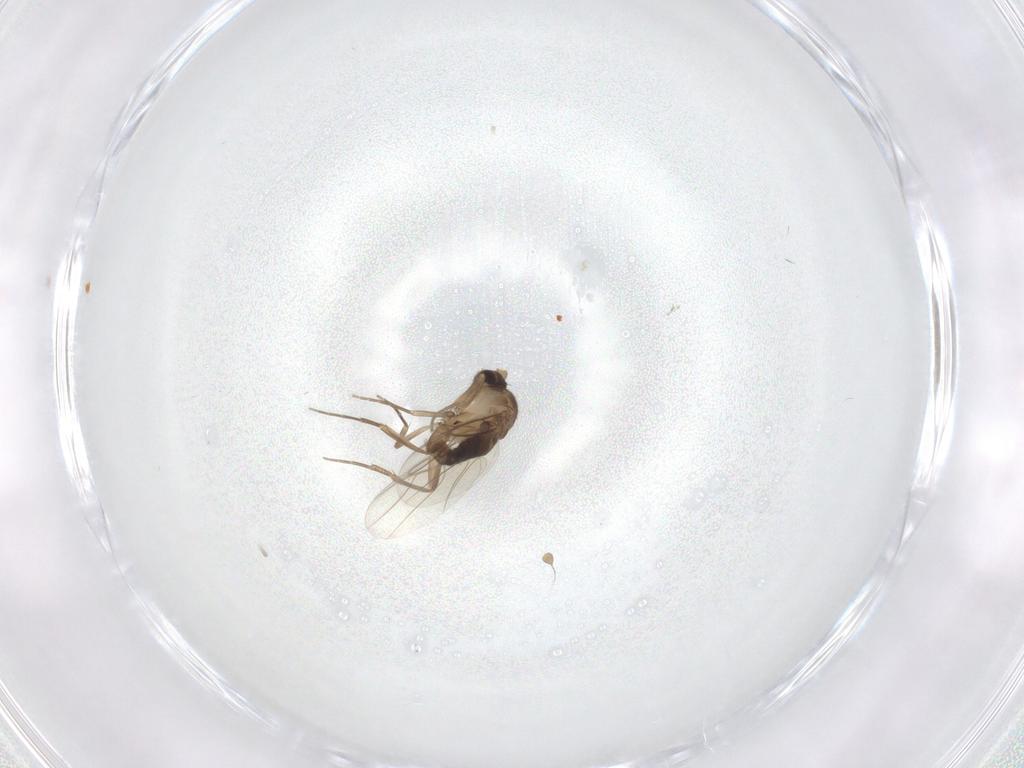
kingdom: Animalia
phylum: Arthropoda
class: Insecta
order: Diptera
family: Phoridae
